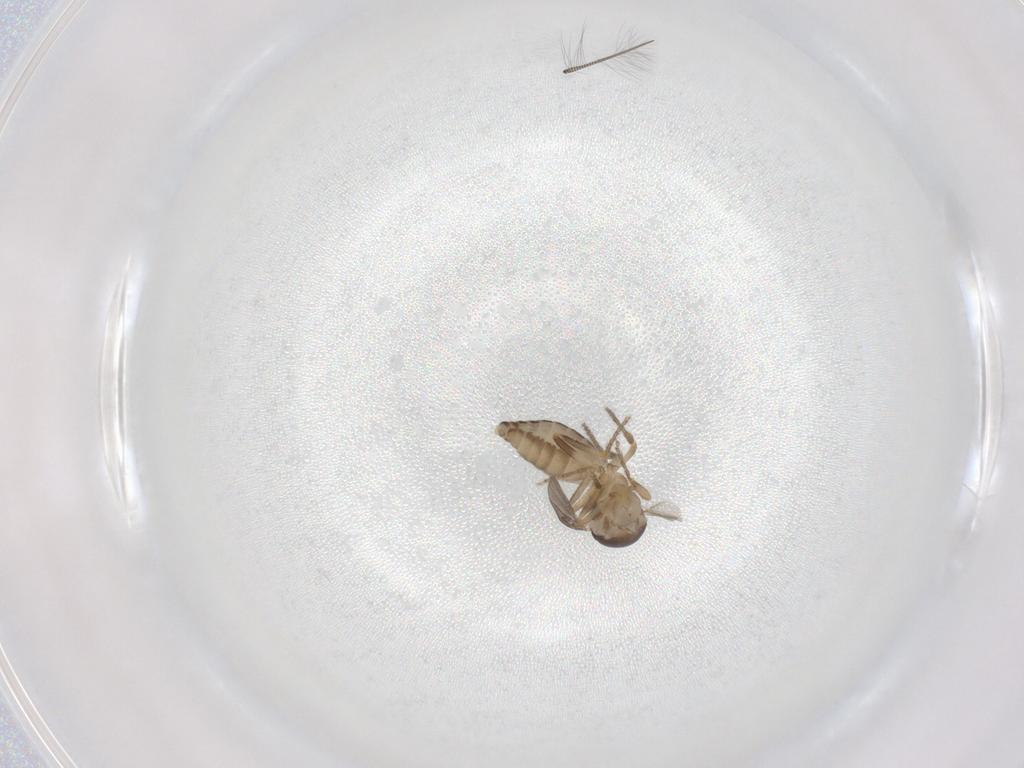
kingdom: Animalia
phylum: Arthropoda
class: Insecta
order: Diptera
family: Ceratopogonidae
